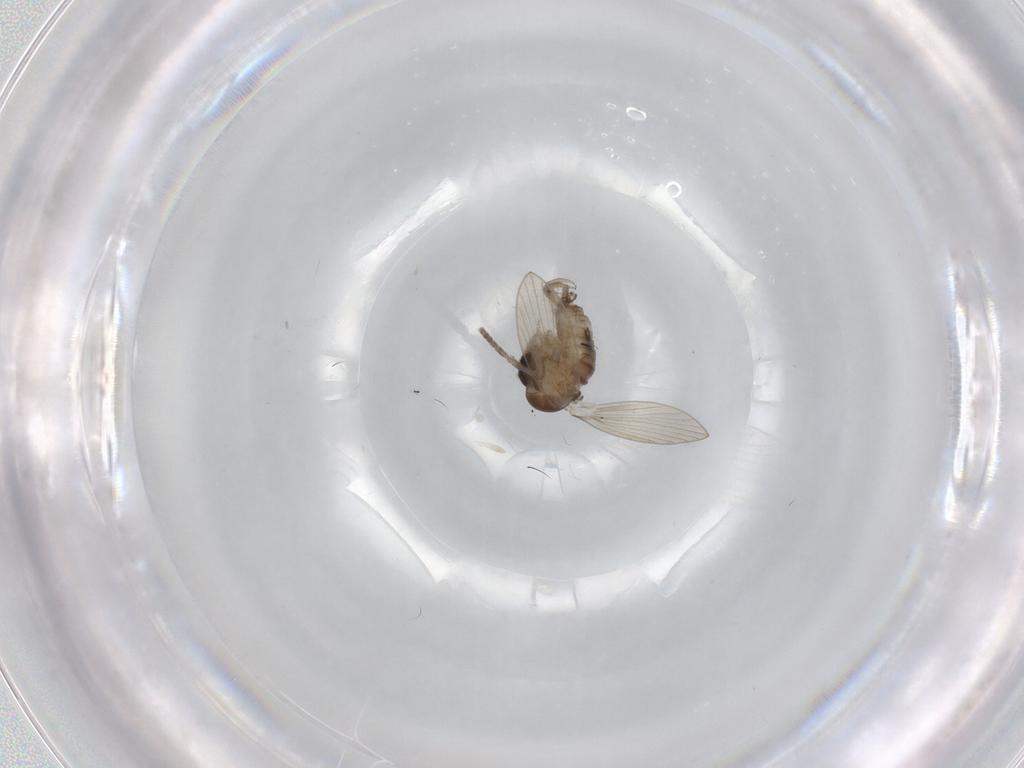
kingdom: Animalia
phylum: Arthropoda
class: Insecta
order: Diptera
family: Psychodidae
